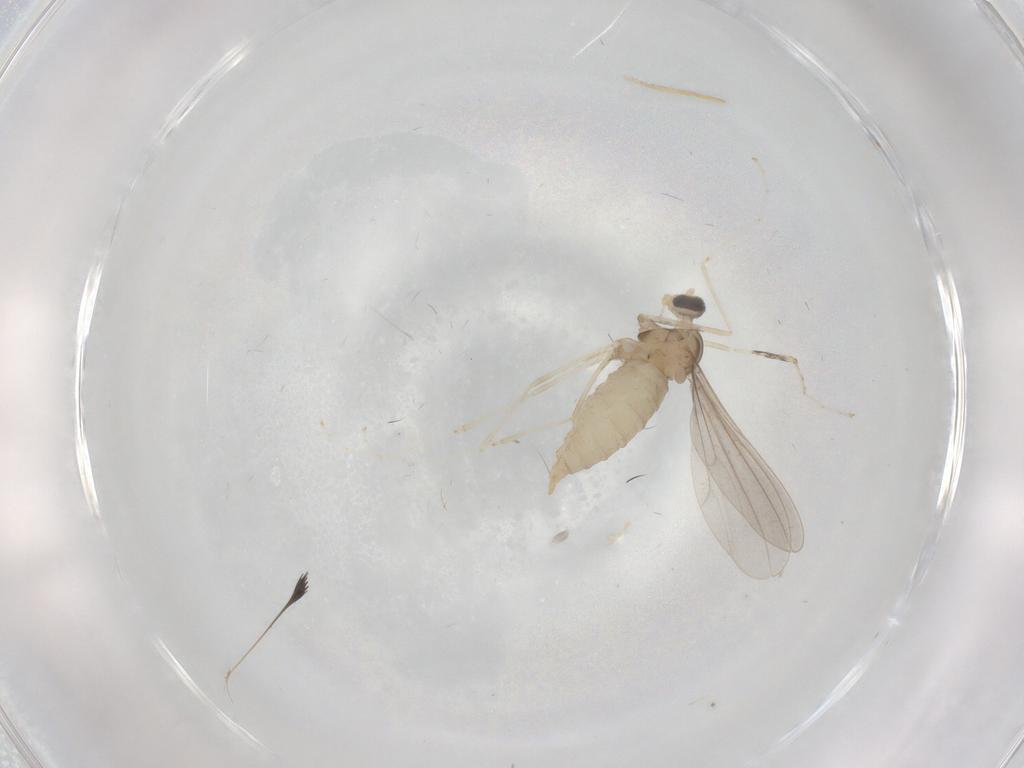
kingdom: Animalia
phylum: Arthropoda
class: Insecta
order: Diptera
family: Cecidomyiidae
